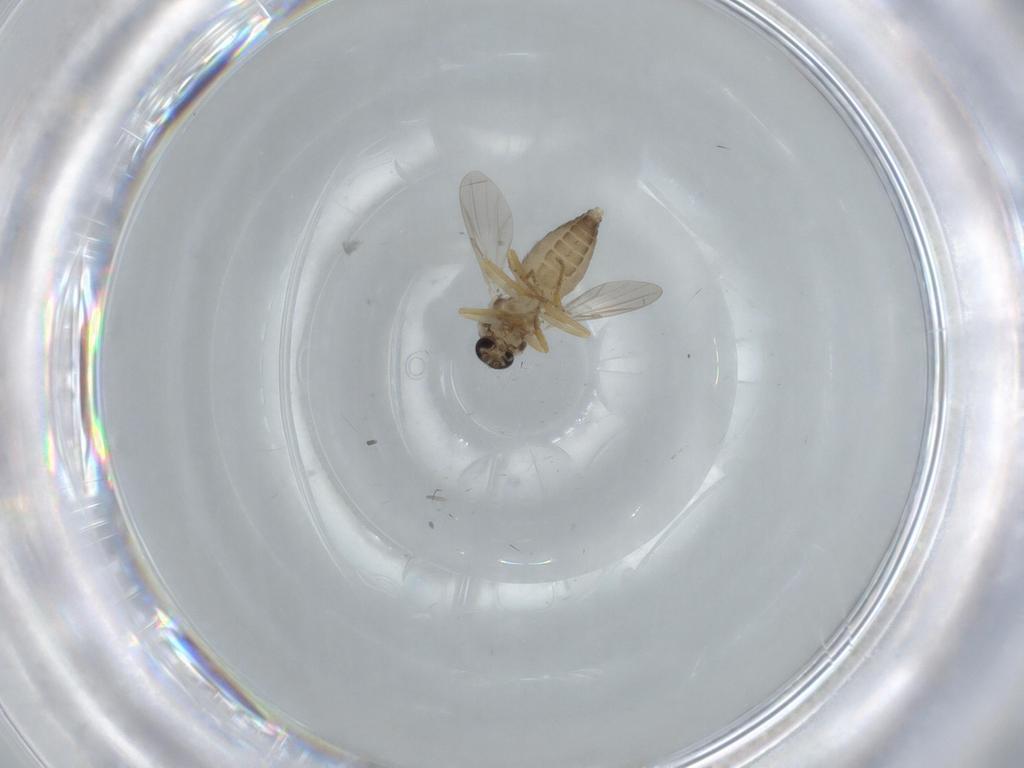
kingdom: Animalia
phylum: Arthropoda
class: Insecta
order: Diptera
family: Ceratopogonidae
